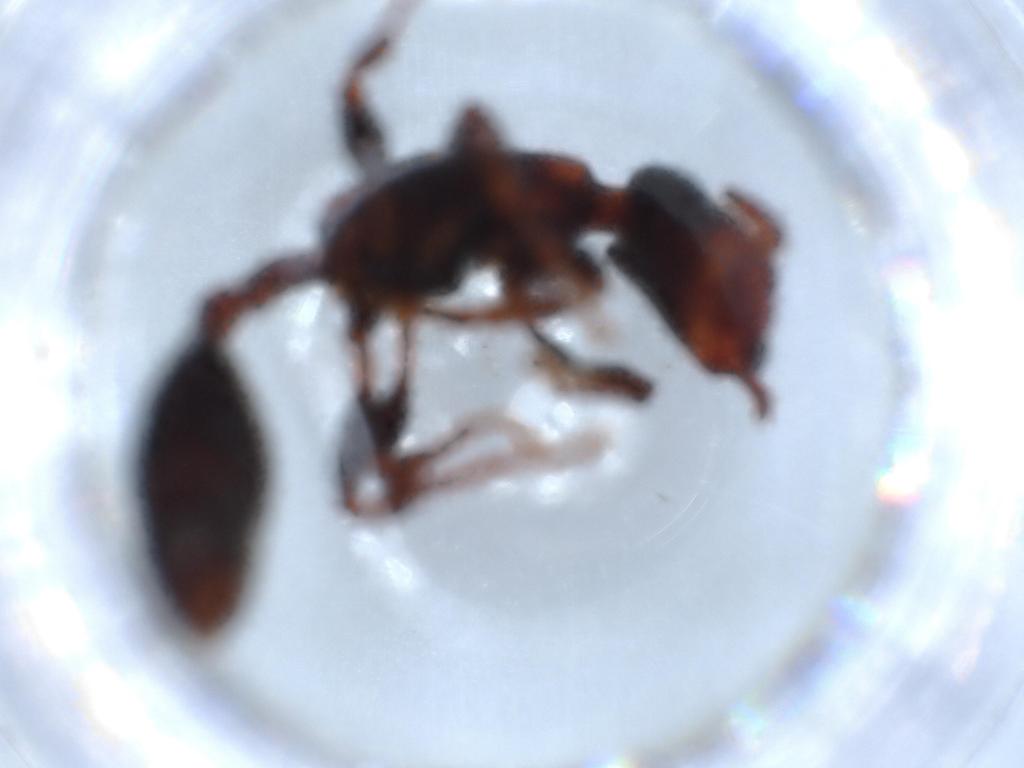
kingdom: Animalia
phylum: Arthropoda
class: Insecta
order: Hymenoptera
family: Formicidae
